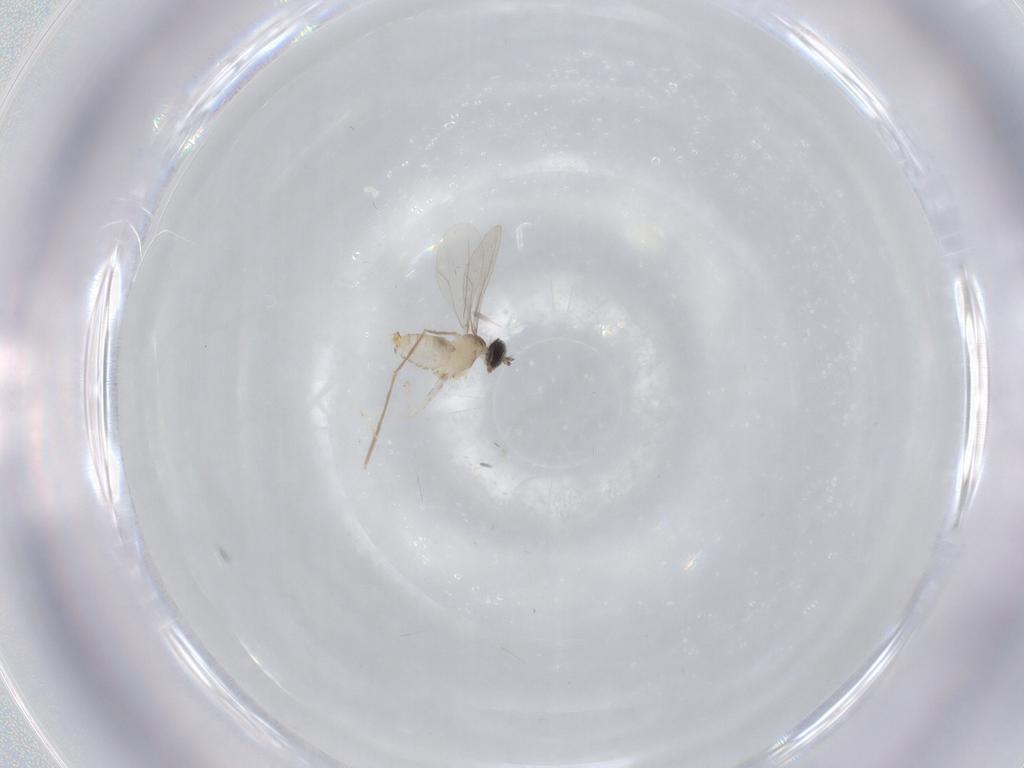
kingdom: Animalia
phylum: Arthropoda
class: Insecta
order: Diptera
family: Cecidomyiidae
